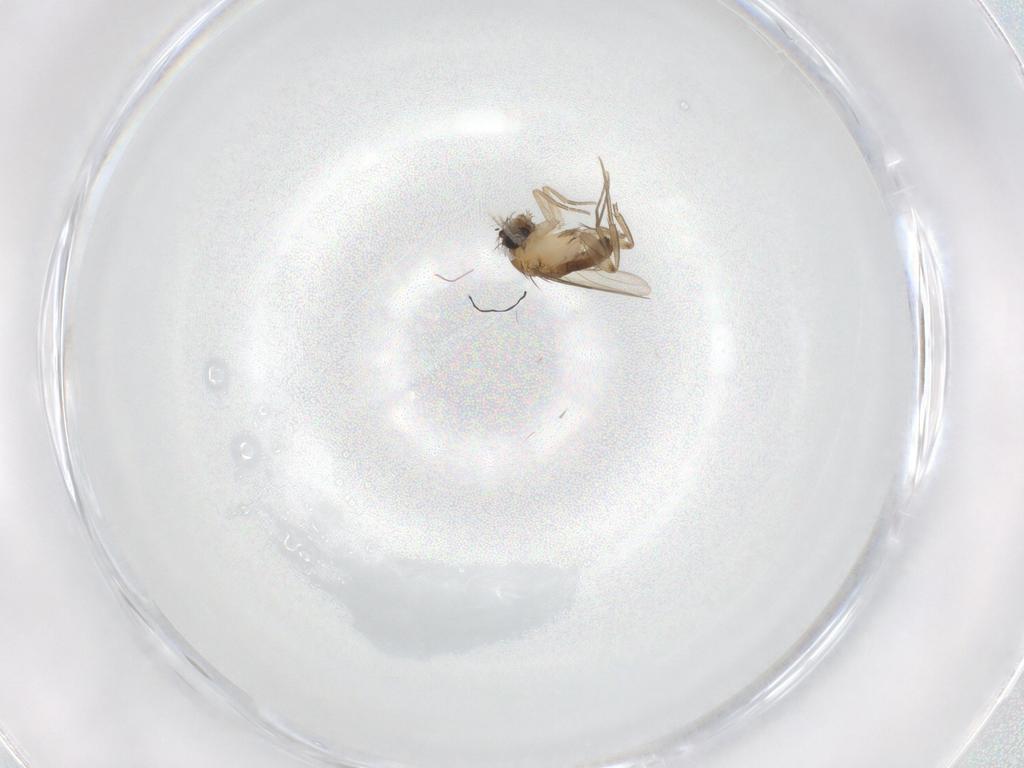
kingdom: Animalia
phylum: Arthropoda
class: Insecta
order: Diptera
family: Phoridae
